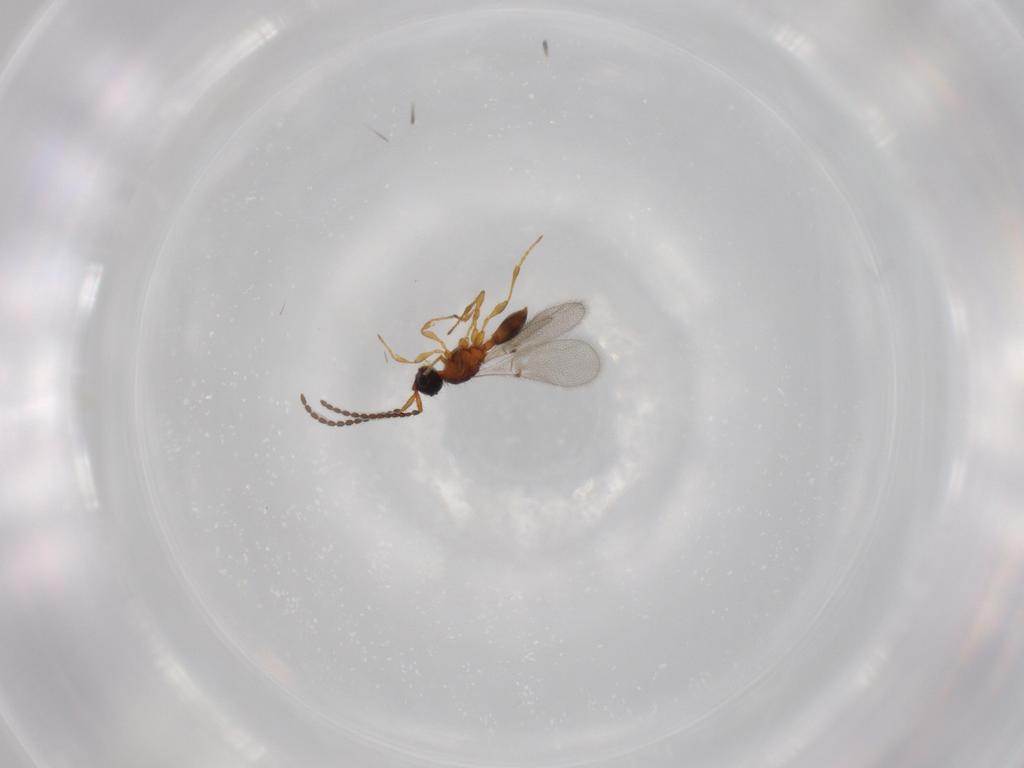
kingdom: Animalia
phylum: Arthropoda
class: Insecta
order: Hymenoptera
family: Diapriidae
